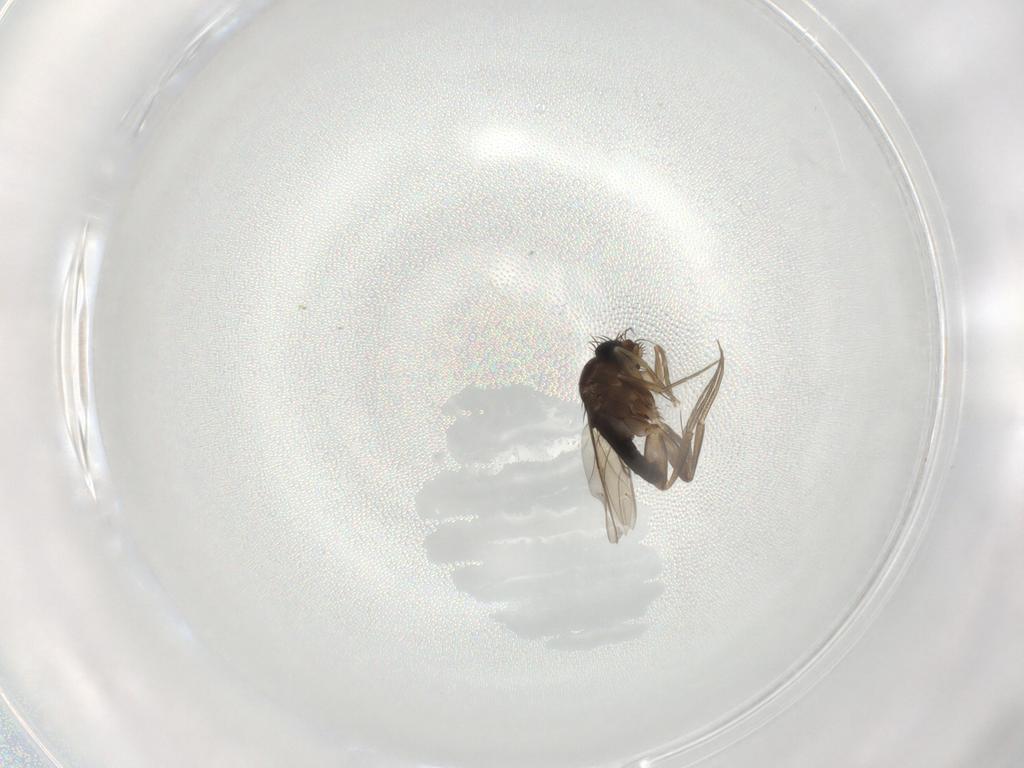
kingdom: Animalia
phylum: Arthropoda
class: Insecta
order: Diptera
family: Phoridae
